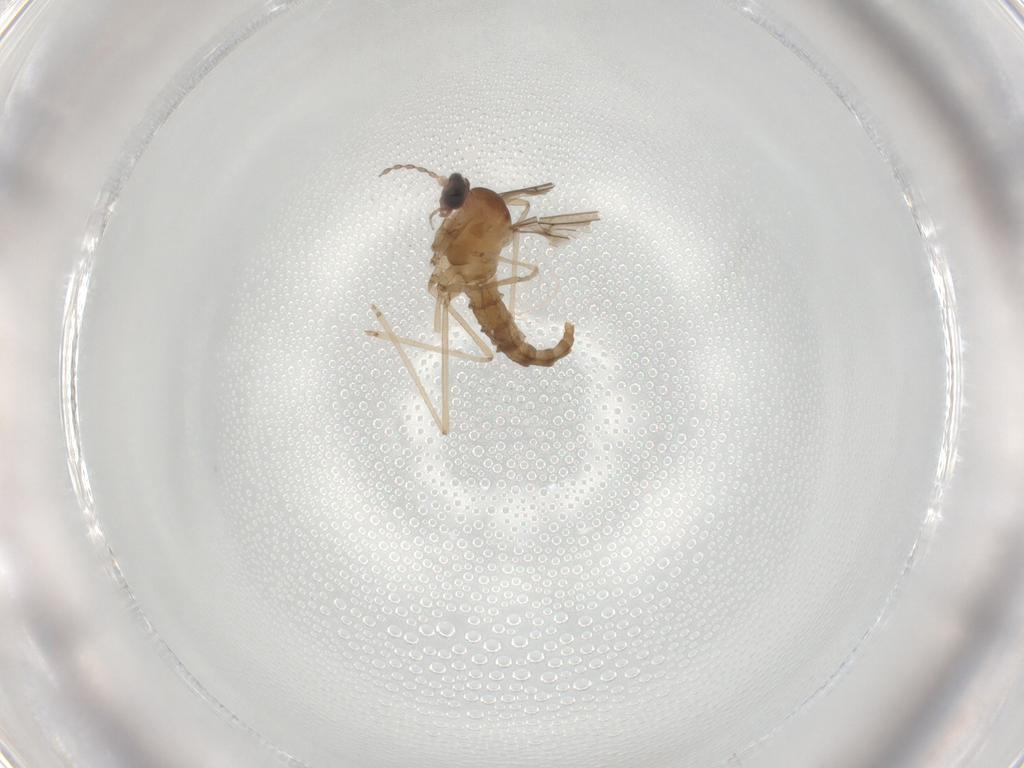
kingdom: Animalia
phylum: Arthropoda
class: Insecta
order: Diptera
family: Cecidomyiidae
